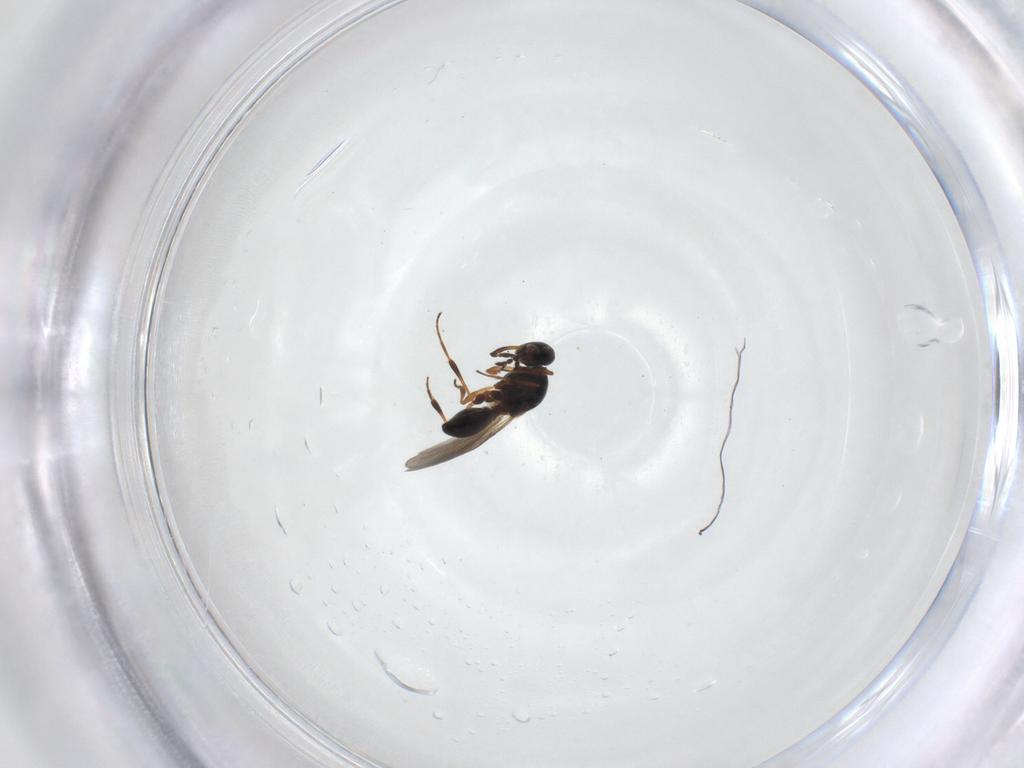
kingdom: Animalia
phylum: Arthropoda
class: Insecta
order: Hymenoptera
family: Platygastridae
